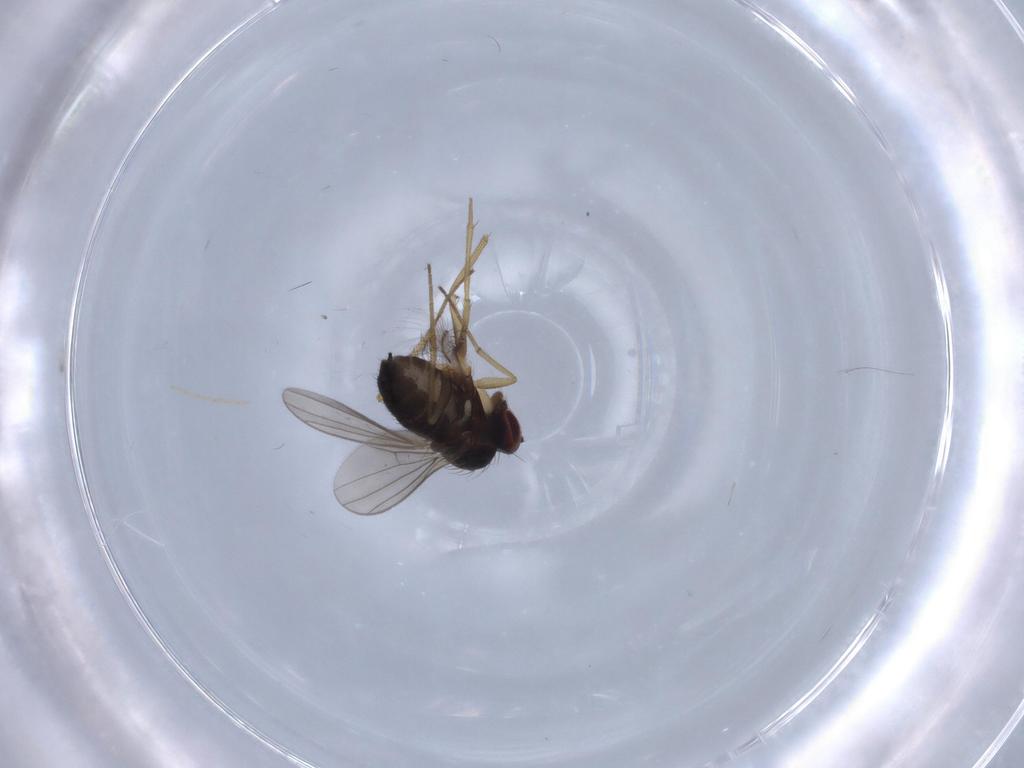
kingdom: Animalia
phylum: Arthropoda
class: Insecta
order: Diptera
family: Dolichopodidae
